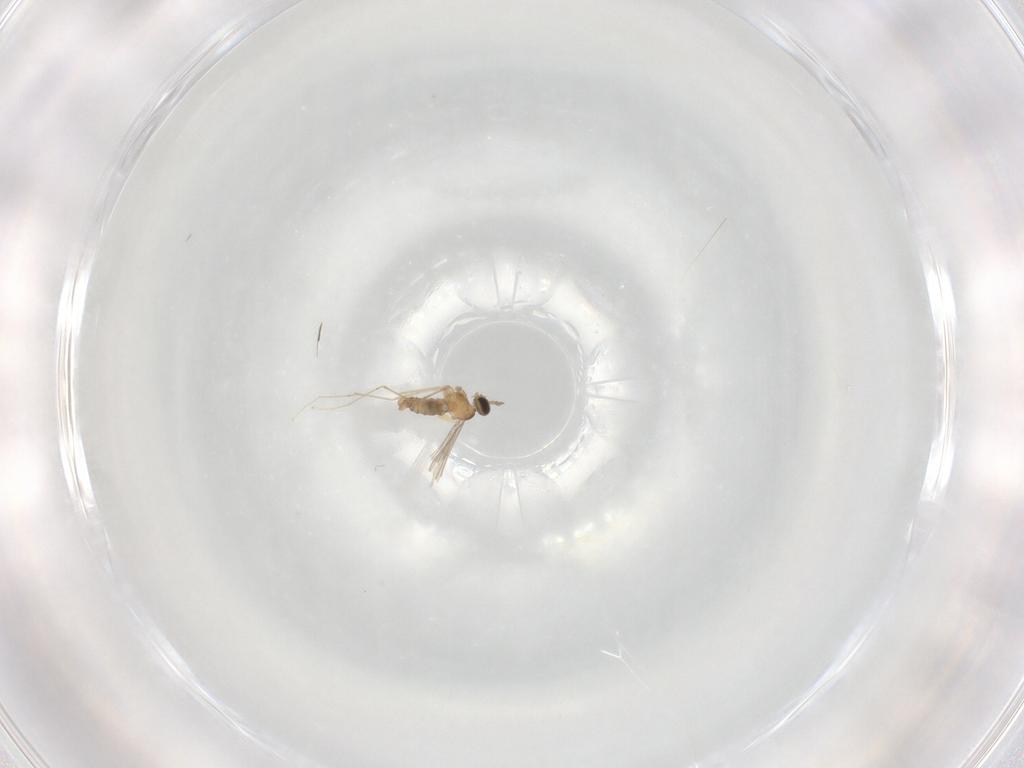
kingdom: Animalia
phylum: Arthropoda
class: Insecta
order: Diptera
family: Cecidomyiidae
